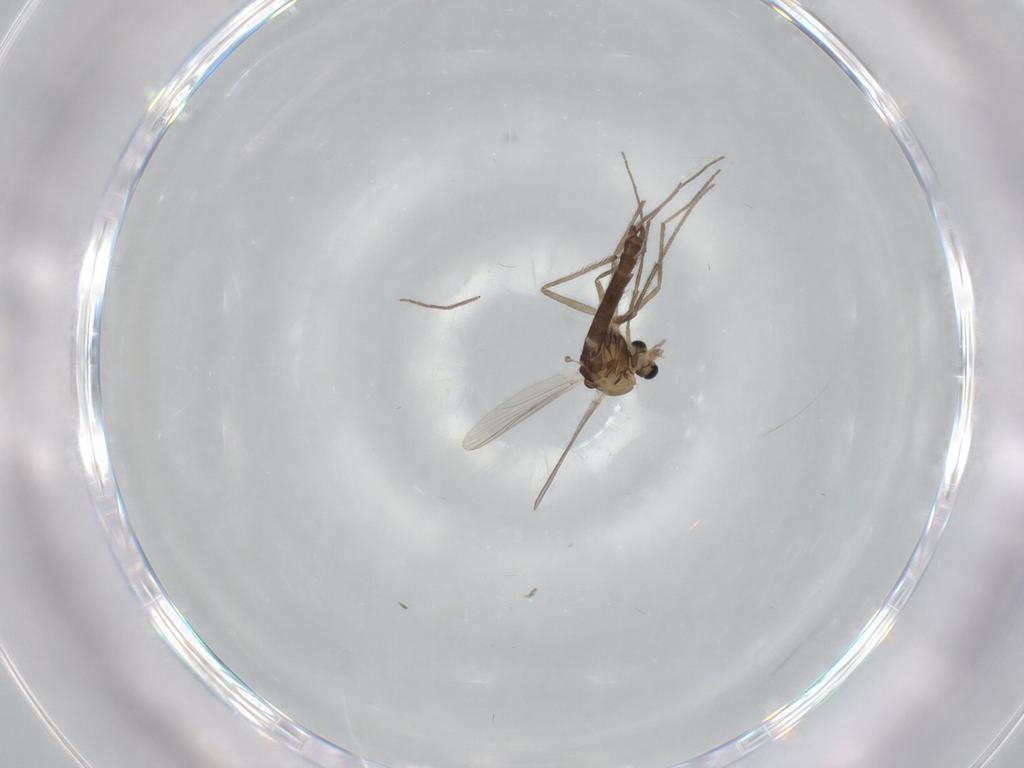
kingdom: Animalia
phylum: Arthropoda
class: Insecta
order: Diptera
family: Chironomidae
